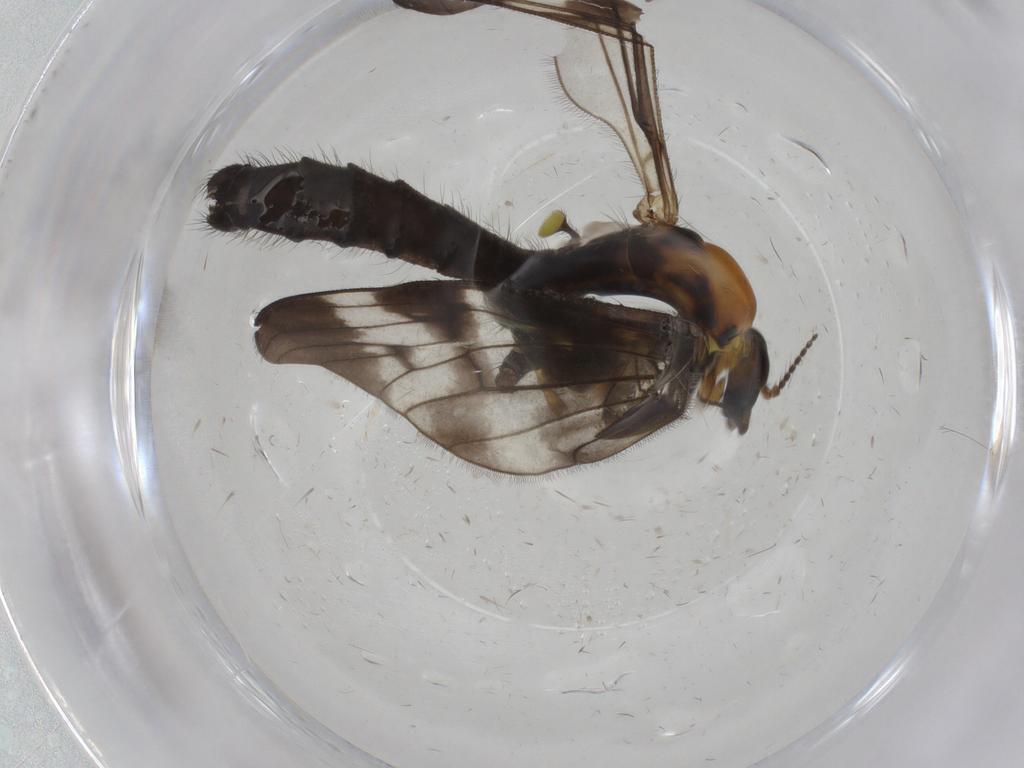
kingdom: Animalia
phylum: Arthropoda
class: Insecta
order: Diptera
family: Limoniidae
